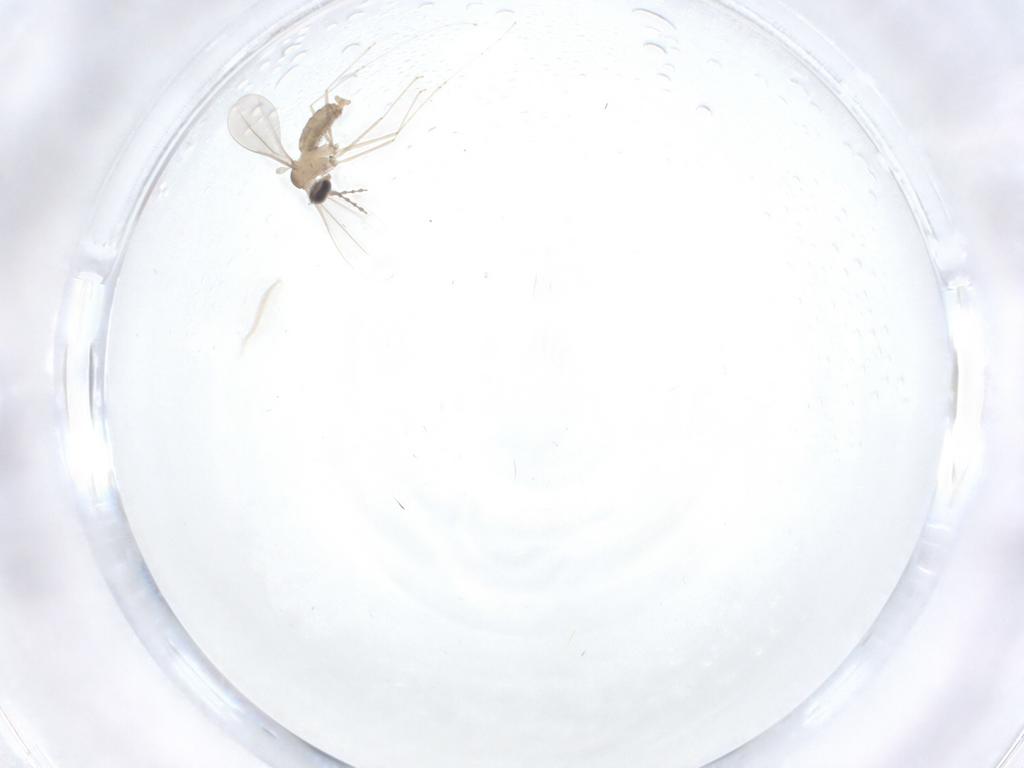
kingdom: Animalia
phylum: Arthropoda
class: Insecta
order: Diptera
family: Cecidomyiidae
